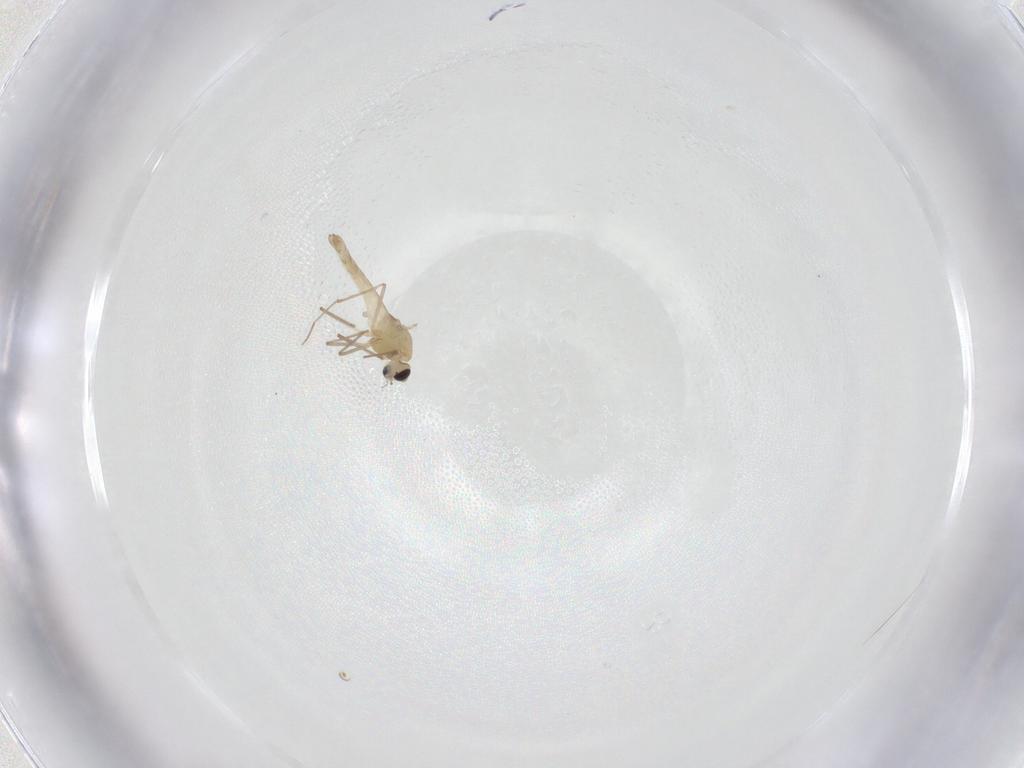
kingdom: Animalia
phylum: Arthropoda
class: Insecta
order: Diptera
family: Chironomidae
